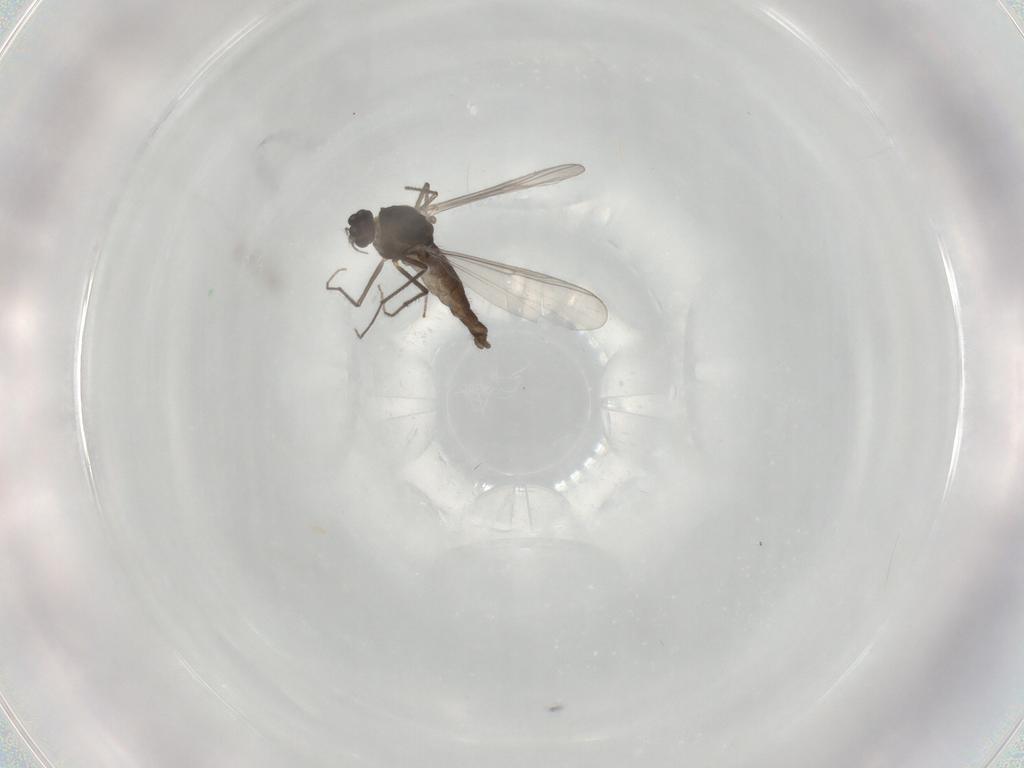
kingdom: Animalia
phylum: Arthropoda
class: Insecta
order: Diptera
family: Chironomidae
